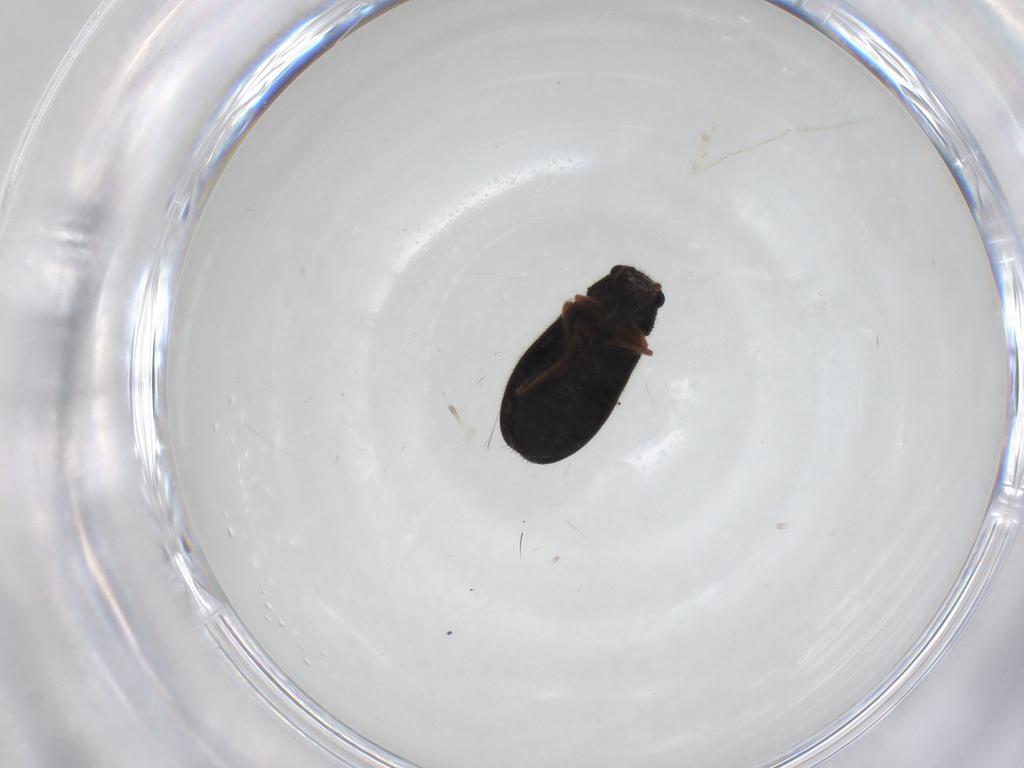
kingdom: Animalia
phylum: Arthropoda
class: Insecta
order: Coleoptera
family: Melyridae
